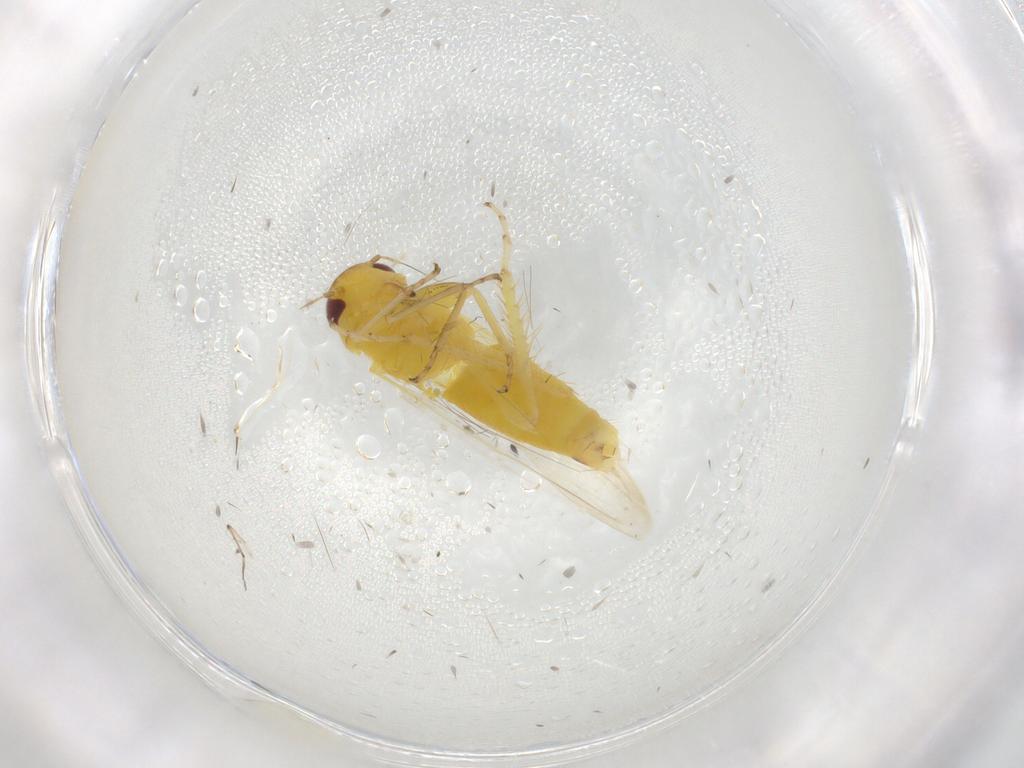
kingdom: Animalia
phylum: Arthropoda
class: Insecta
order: Hemiptera
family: Cicadellidae
